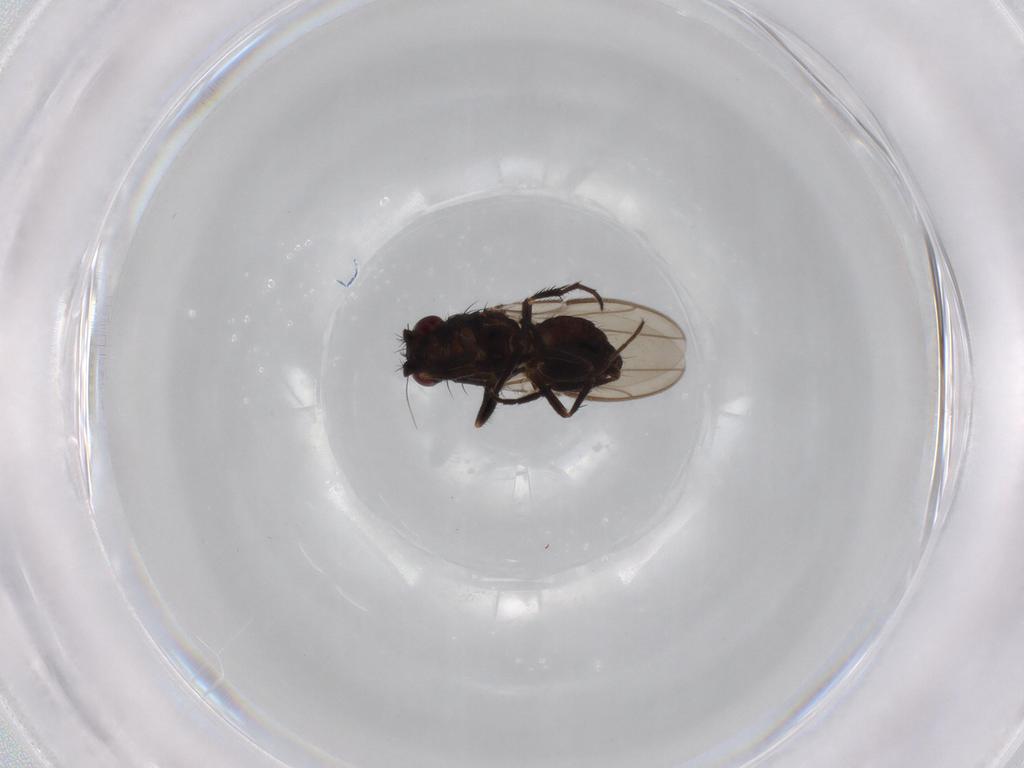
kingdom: Animalia
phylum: Arthropoda
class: Insecta
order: Diptera
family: Sphaeroceridae
